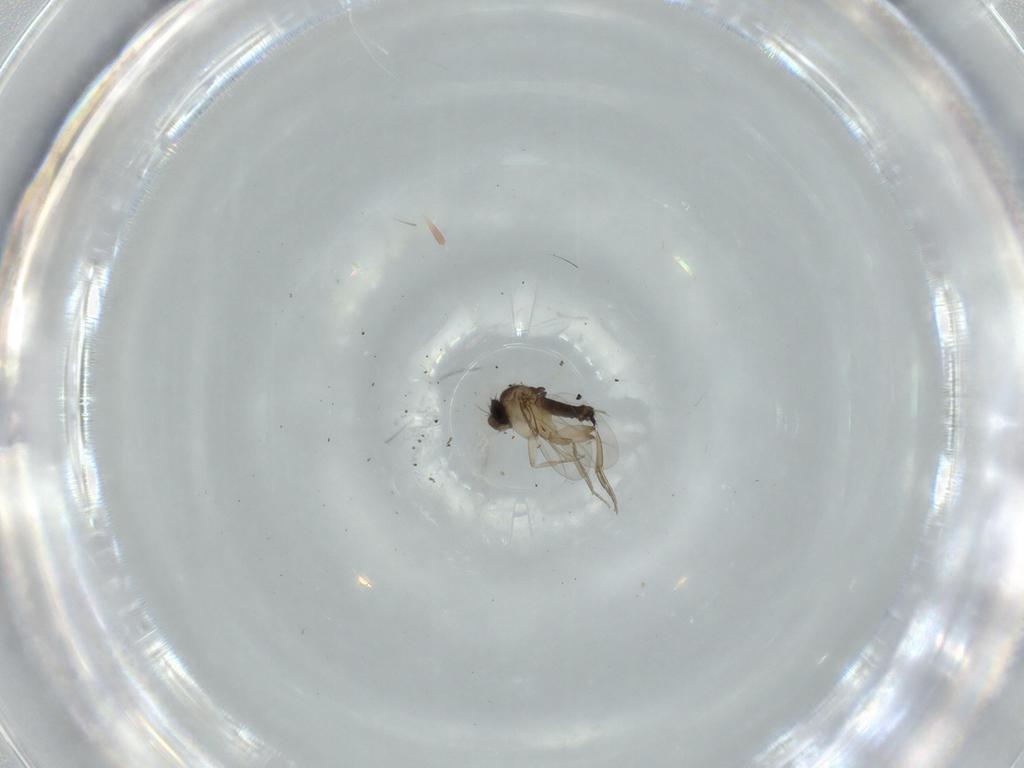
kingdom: Animalia
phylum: Arthropoda
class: Insecta
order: Diptera
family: Phoridae
